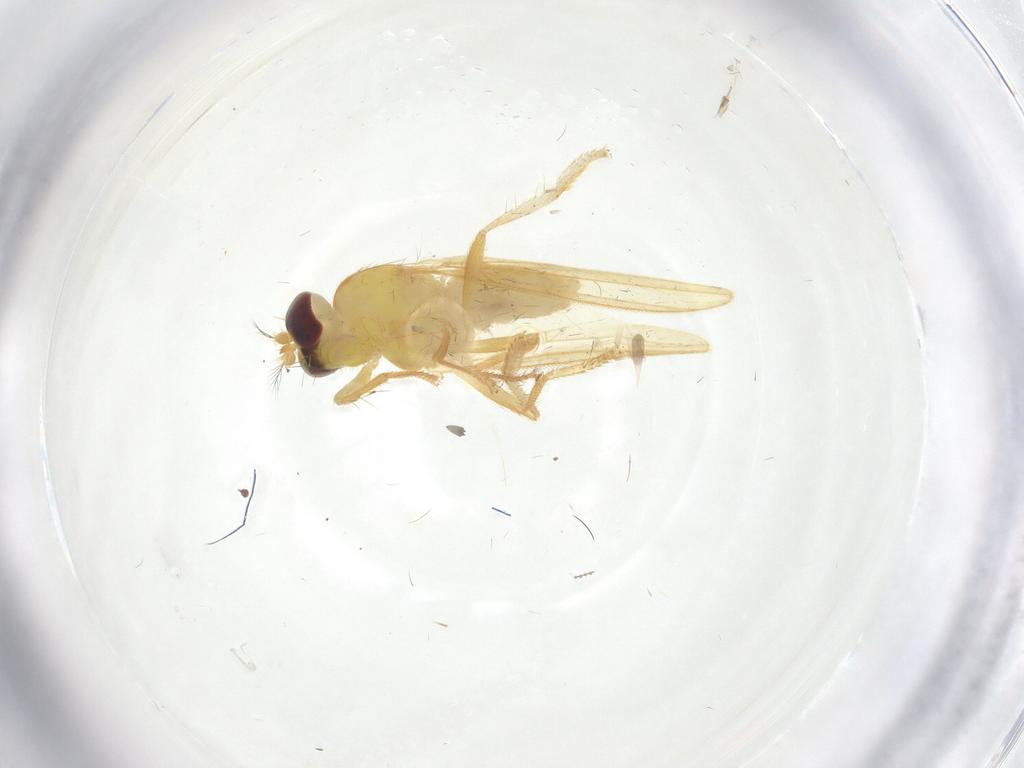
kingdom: Animalia
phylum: Arthropoda
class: Insecta
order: Diptera
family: Periscelididae
